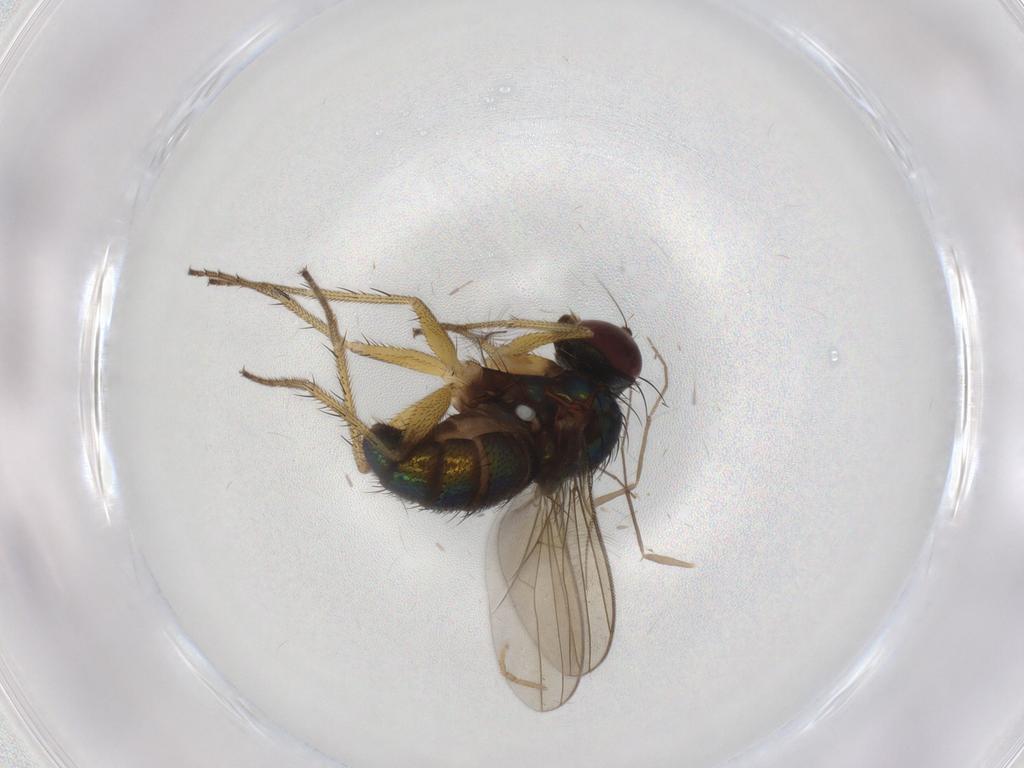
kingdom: Animalia
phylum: Arthropoda
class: Insecta
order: Diptera
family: Dolichopodidae
